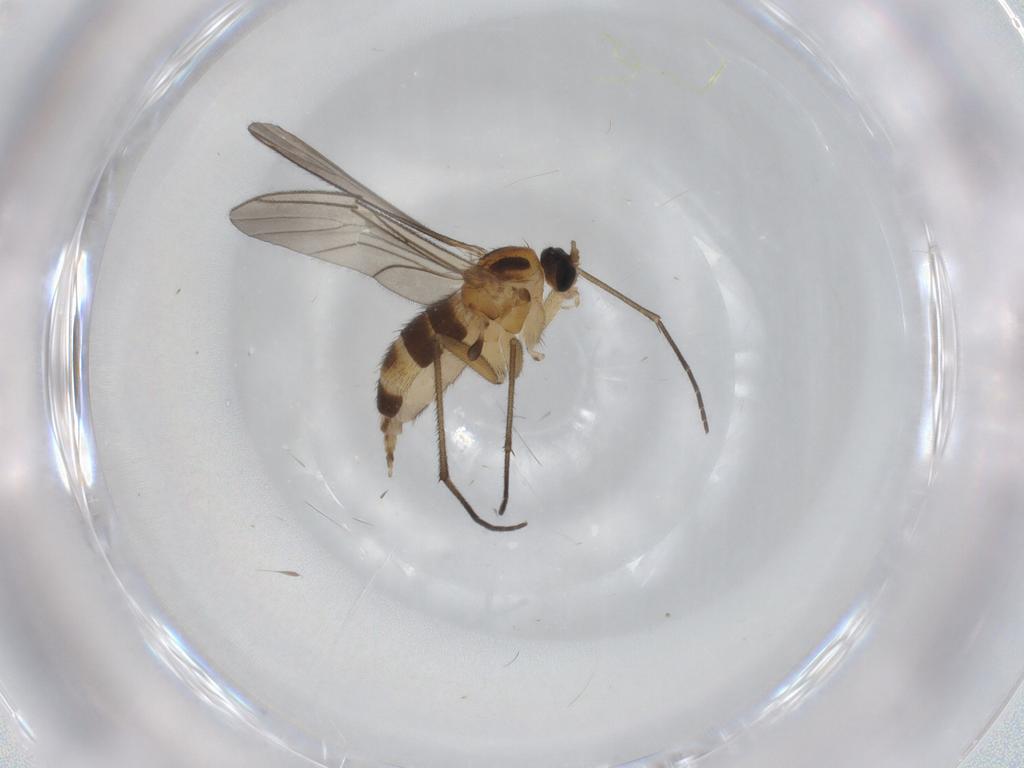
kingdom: Animalia
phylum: Arthropoda
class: Insecta
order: Diptera
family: Sciaridae
